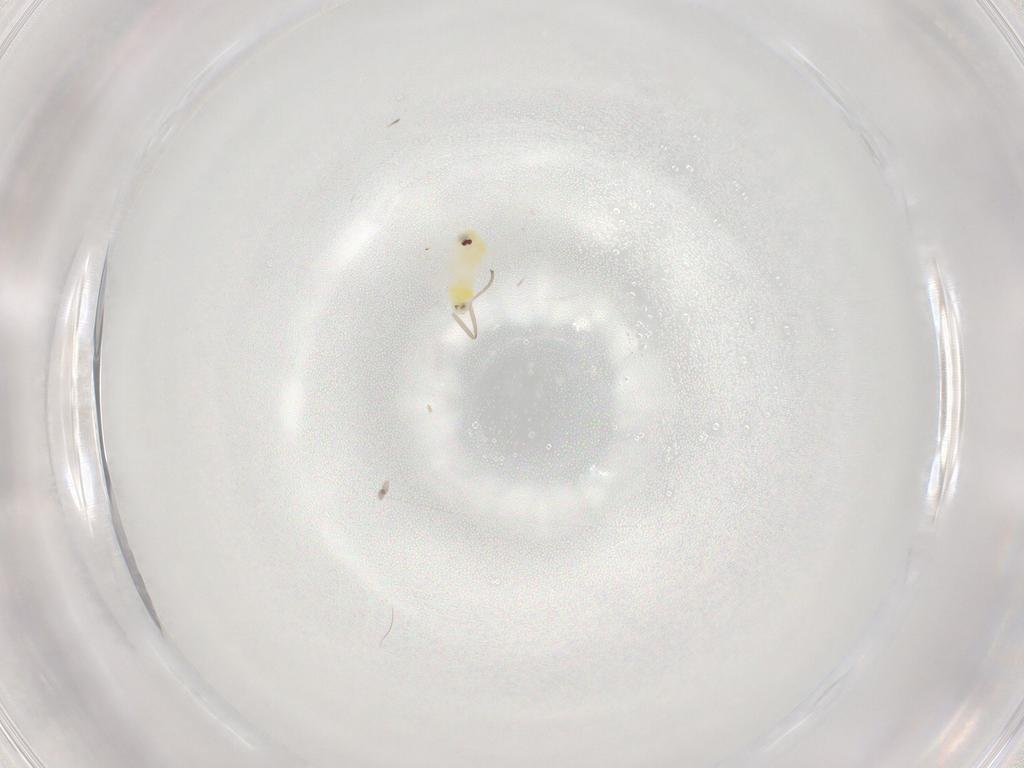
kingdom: Animalia
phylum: Arthropoda
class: Insecta
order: Hemiptera
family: Aleyrodidae
